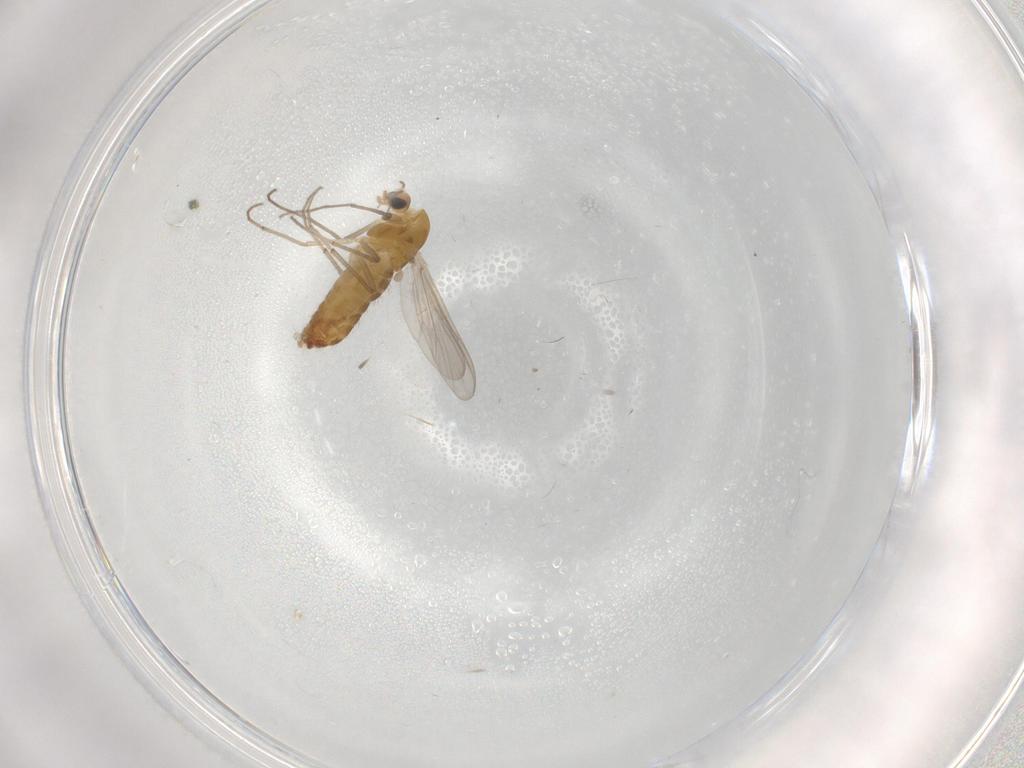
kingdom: Animalia
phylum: Arthropoda
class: Insecta
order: Diptera
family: Chironomidae
